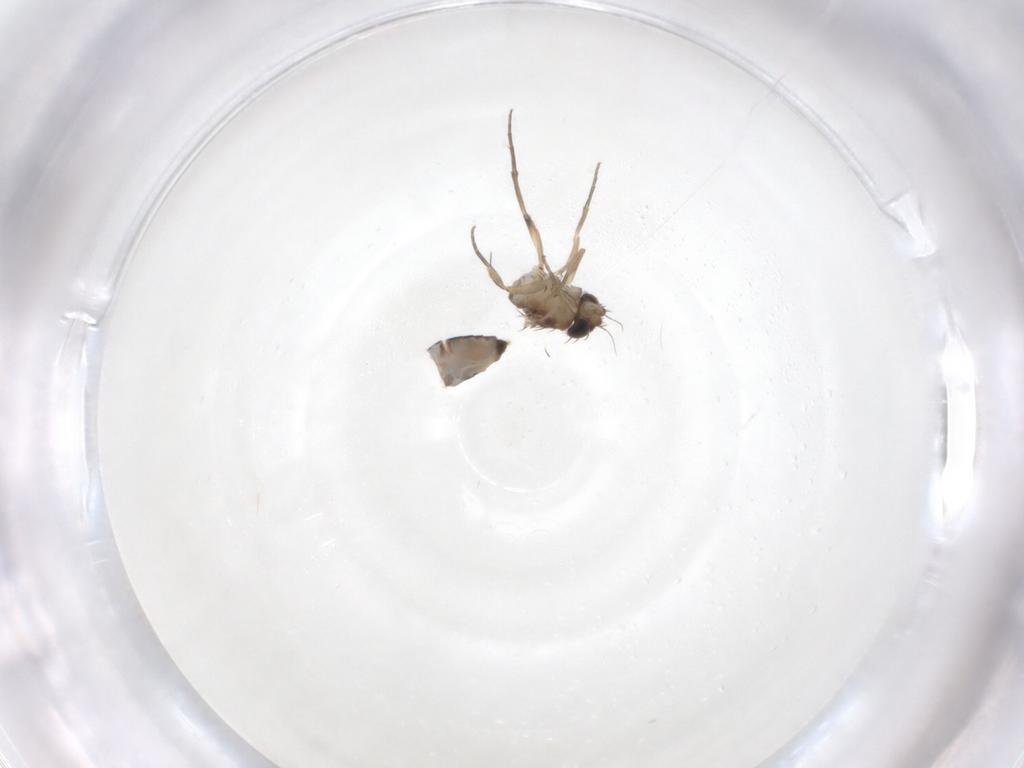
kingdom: Animalia
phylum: Arthropoda
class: Insecta
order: Diptera
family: Phoridae
